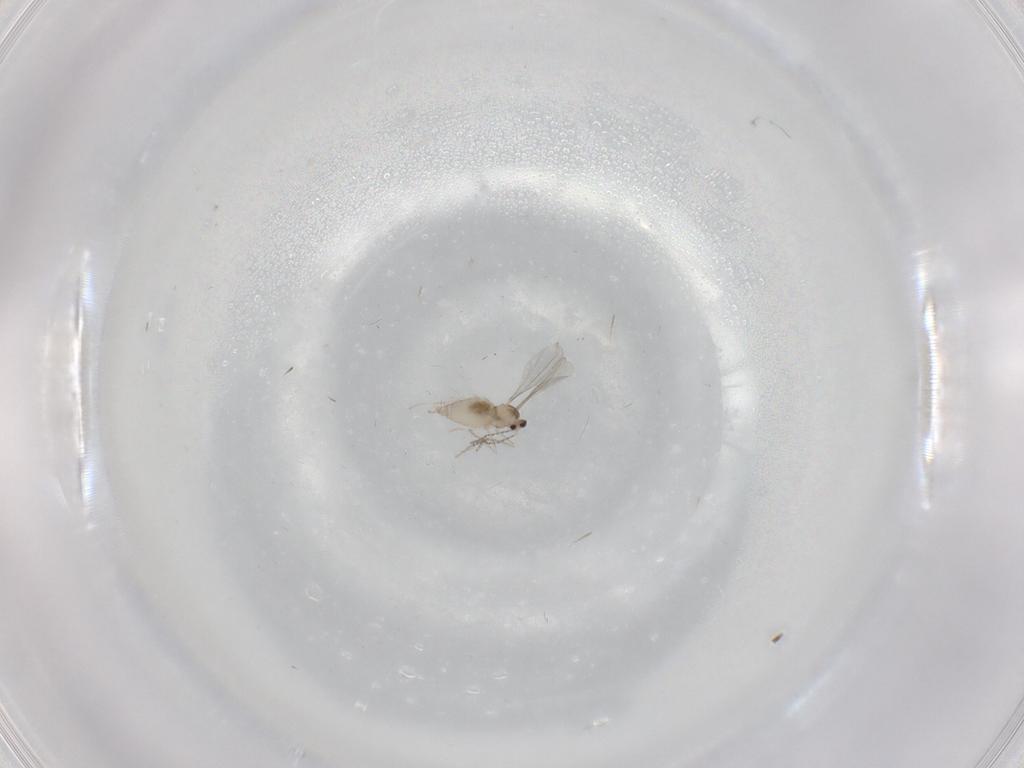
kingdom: Animalia
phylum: Arthropoda
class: Insecta
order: Diptera
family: Cecidomyiidae
